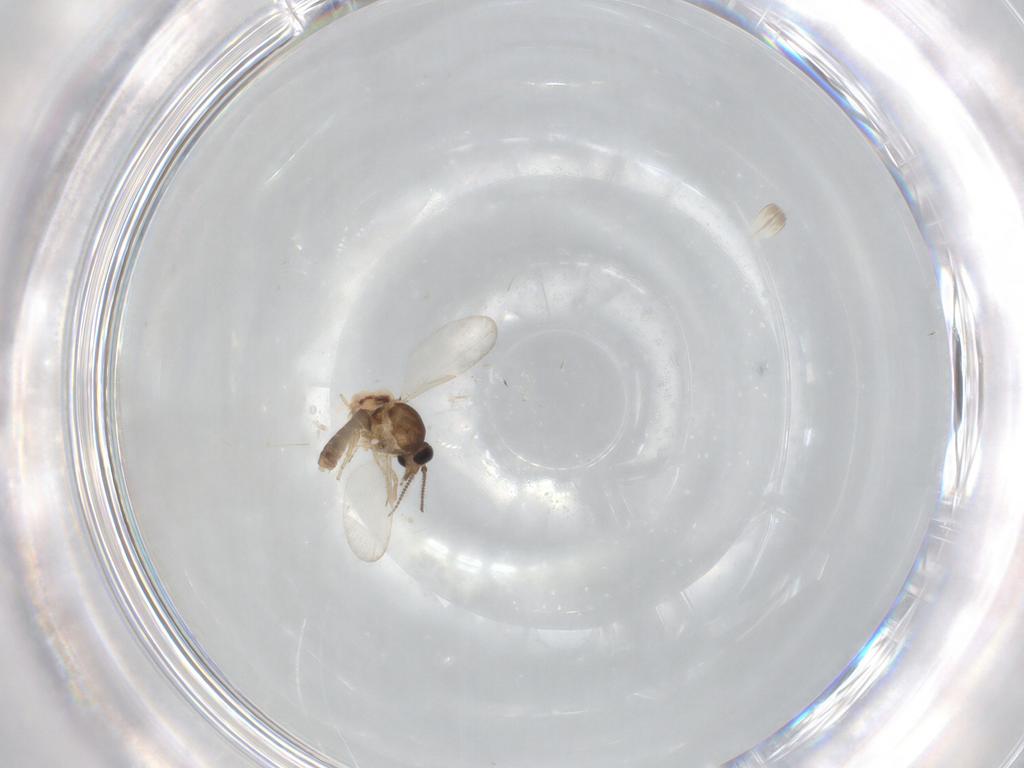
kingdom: Animalia
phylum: Arthropoda
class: Insecta
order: Diptera
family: Ceratopogonidae
